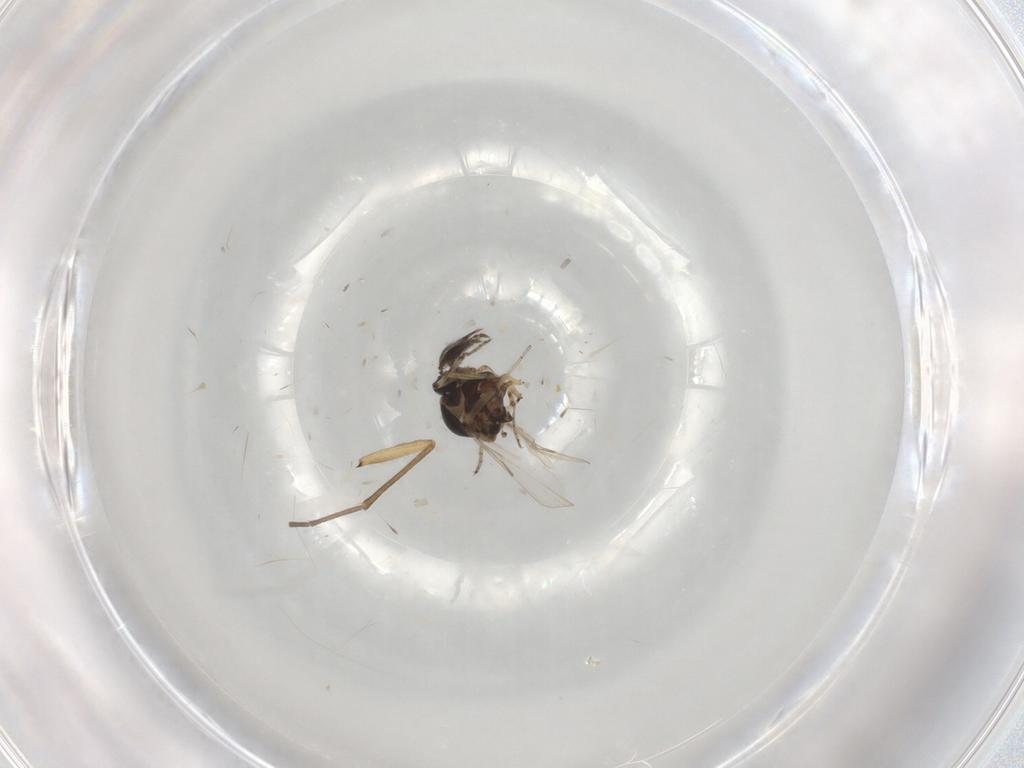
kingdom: Animalia
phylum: Arthropoda
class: Insecta
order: Diptera
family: Ceratopogonidae
